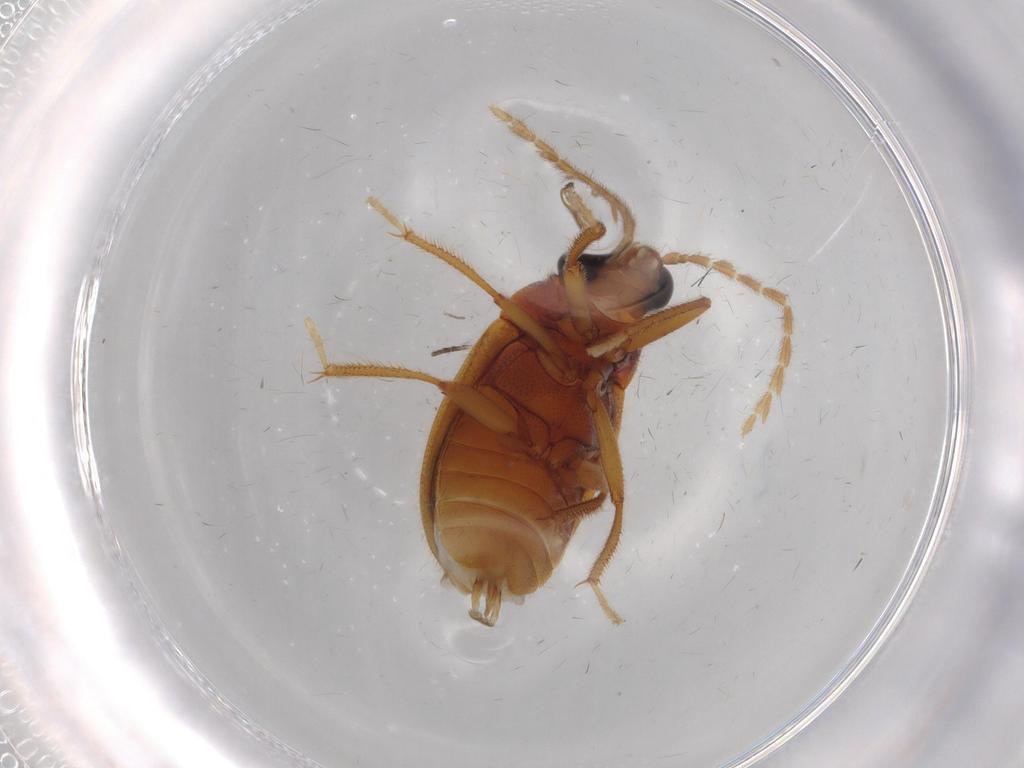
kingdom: Animalia
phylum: Arthropoda
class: Insecta
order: Coleoptera
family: Ptilodactylidae
